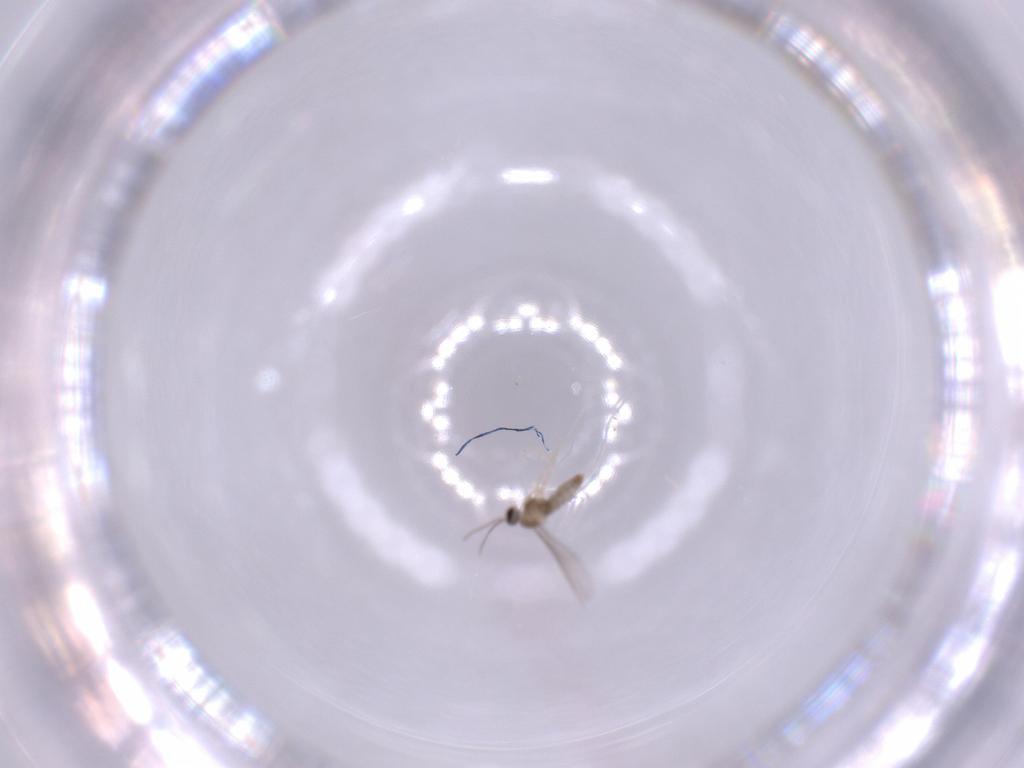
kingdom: Animalia
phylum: Arthropoda
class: Insecta
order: Diptera
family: Sciaridae
